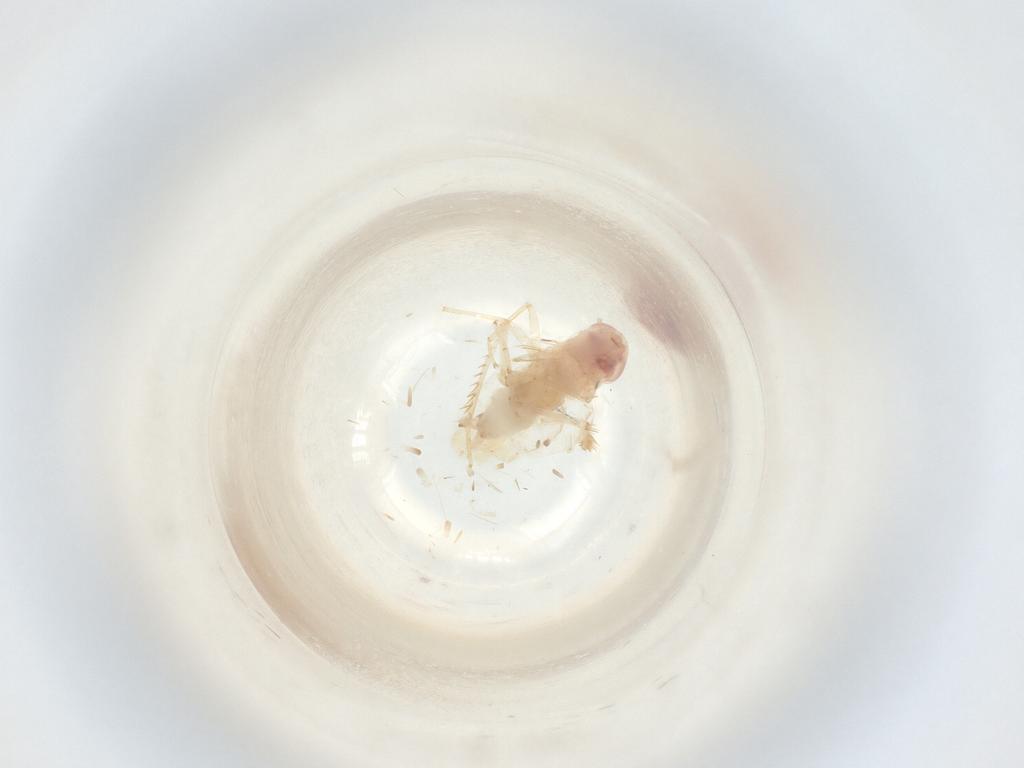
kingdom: Animalia
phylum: Arthropoda
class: Insecta
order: Hemiptera
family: Cicadellidae
